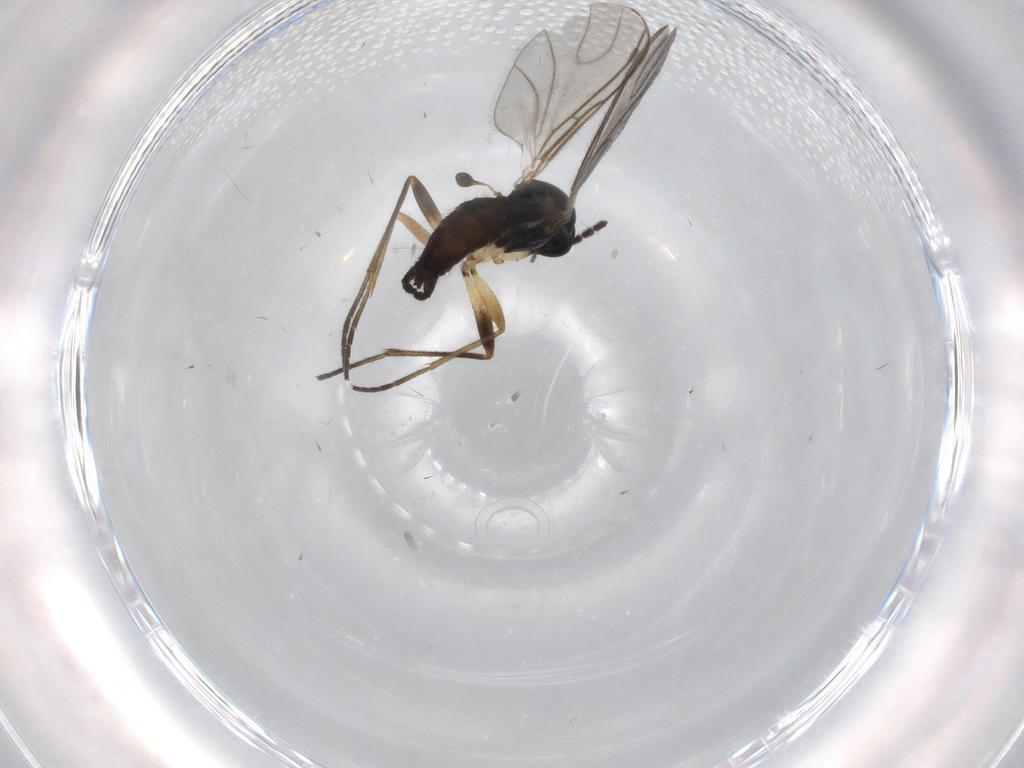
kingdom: Animalia
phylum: Arthropoda
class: Insecta
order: Diptera
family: Sciaridae
